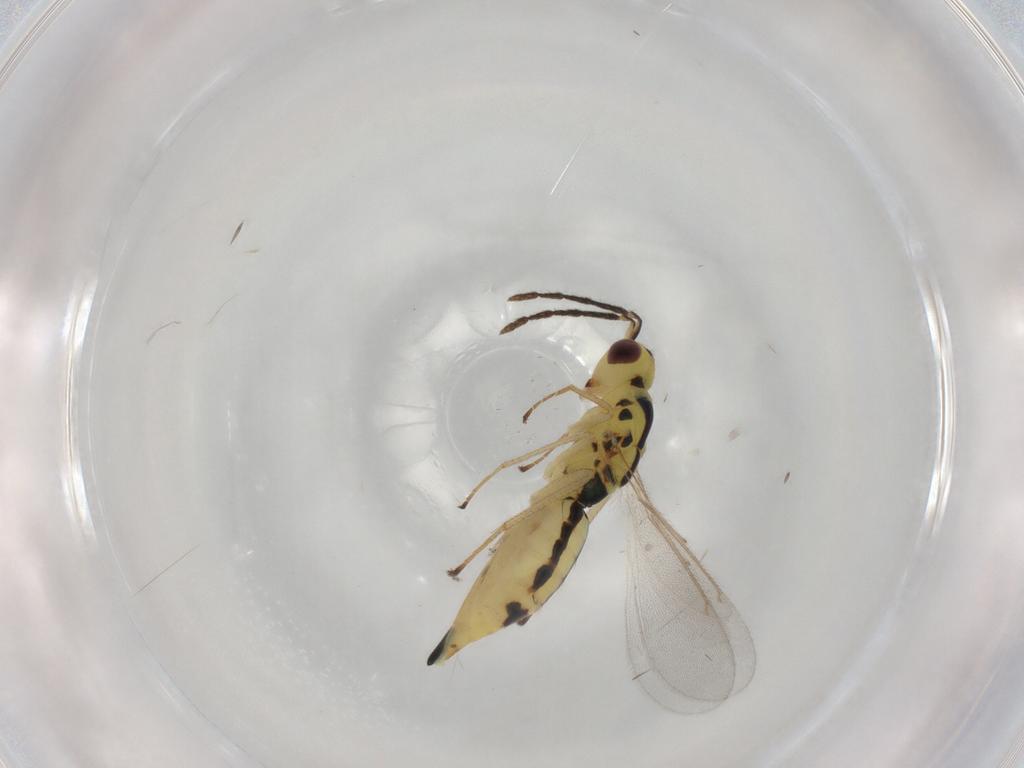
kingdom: Animalia
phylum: Arthropoda
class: Insecta
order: Hymenoptera
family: Eulophidae
